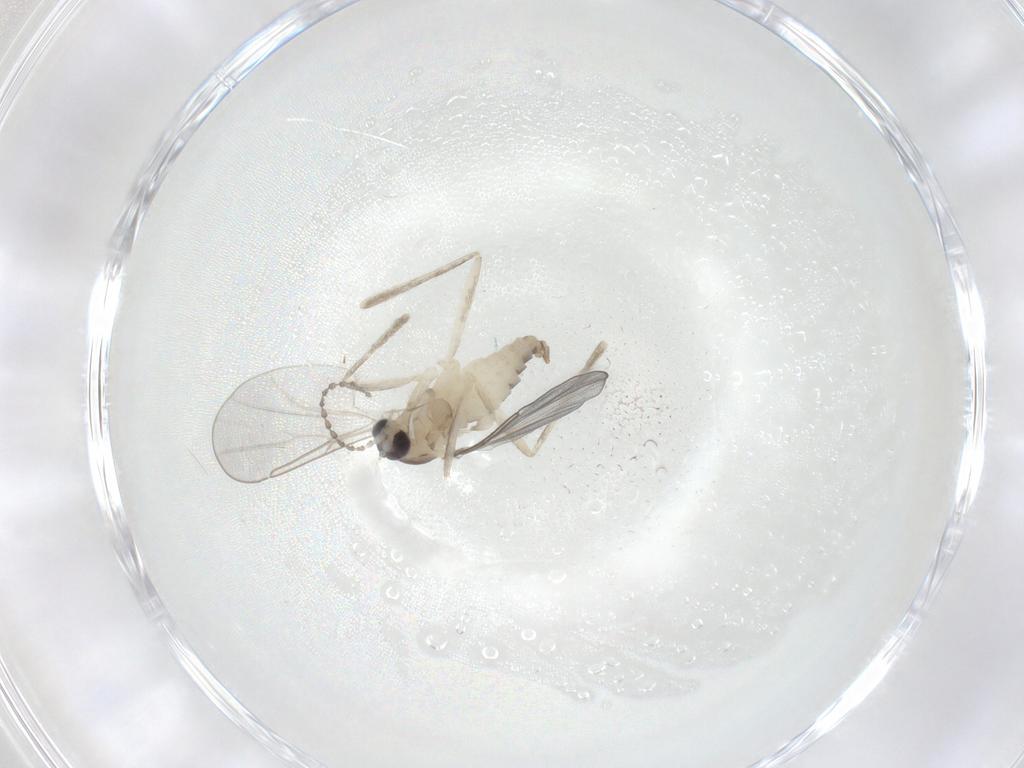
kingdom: Animalia
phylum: Arthropoda
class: Insecta
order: Diptera
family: Cecidomyiidae
